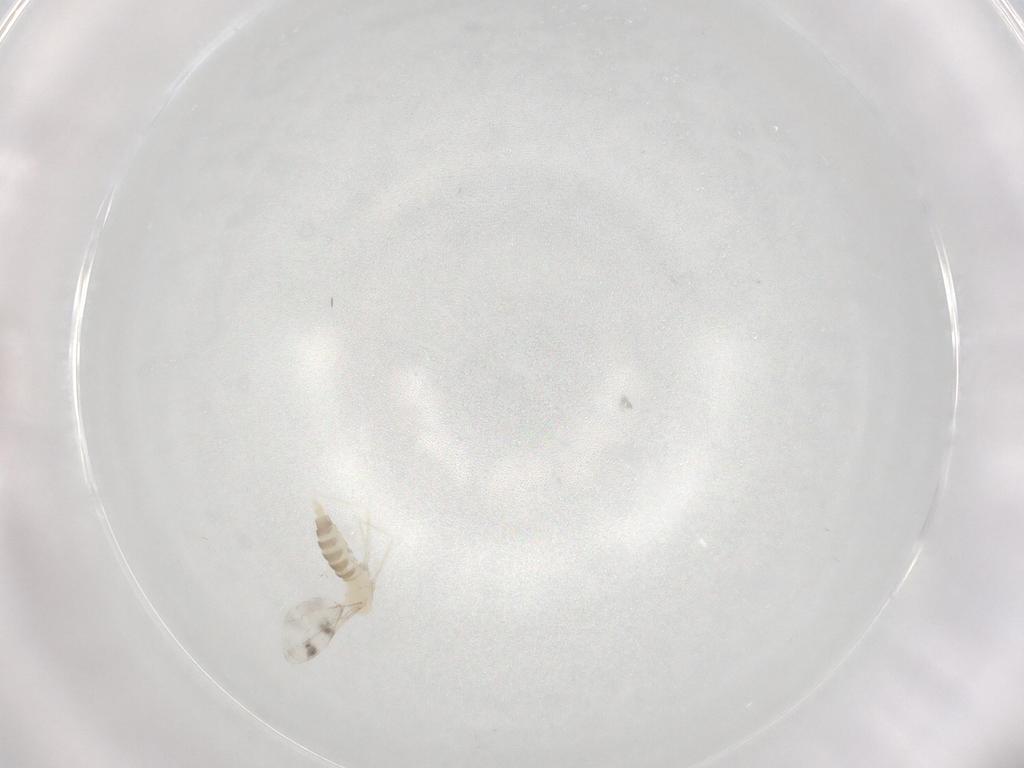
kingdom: Animalia
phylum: Arthropoda
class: Insecta
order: Diptera
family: Cecidomyiidae
